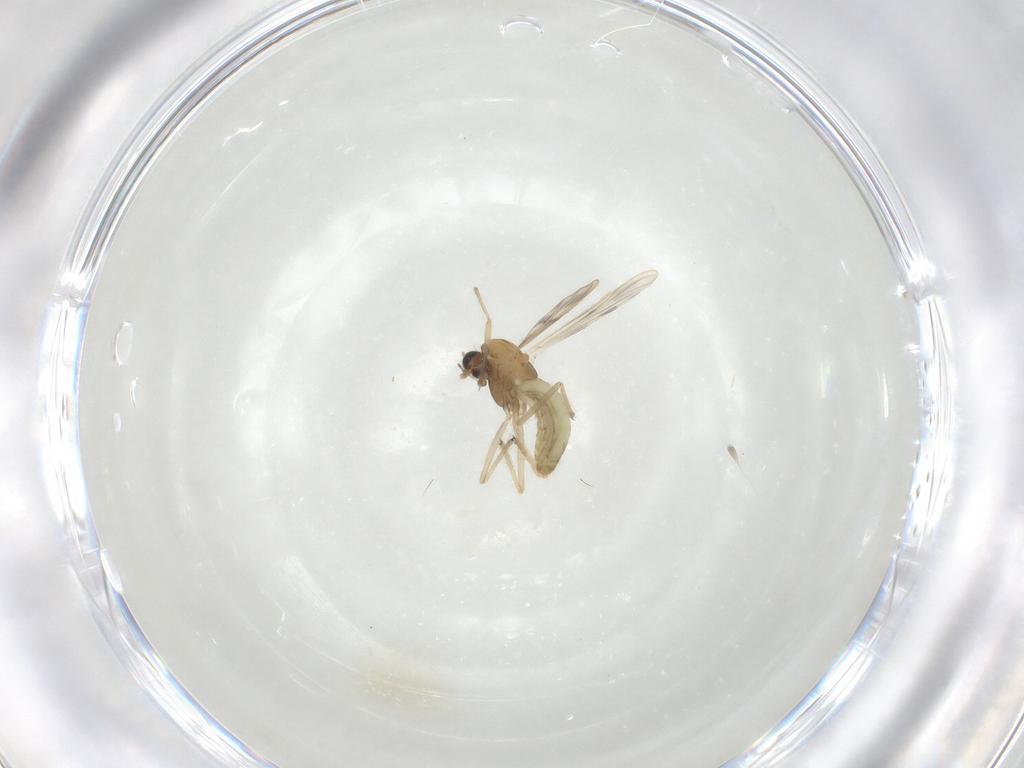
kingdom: Animalia
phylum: Arthropoda
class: Insecta
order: Diptera
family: Chironomidae
